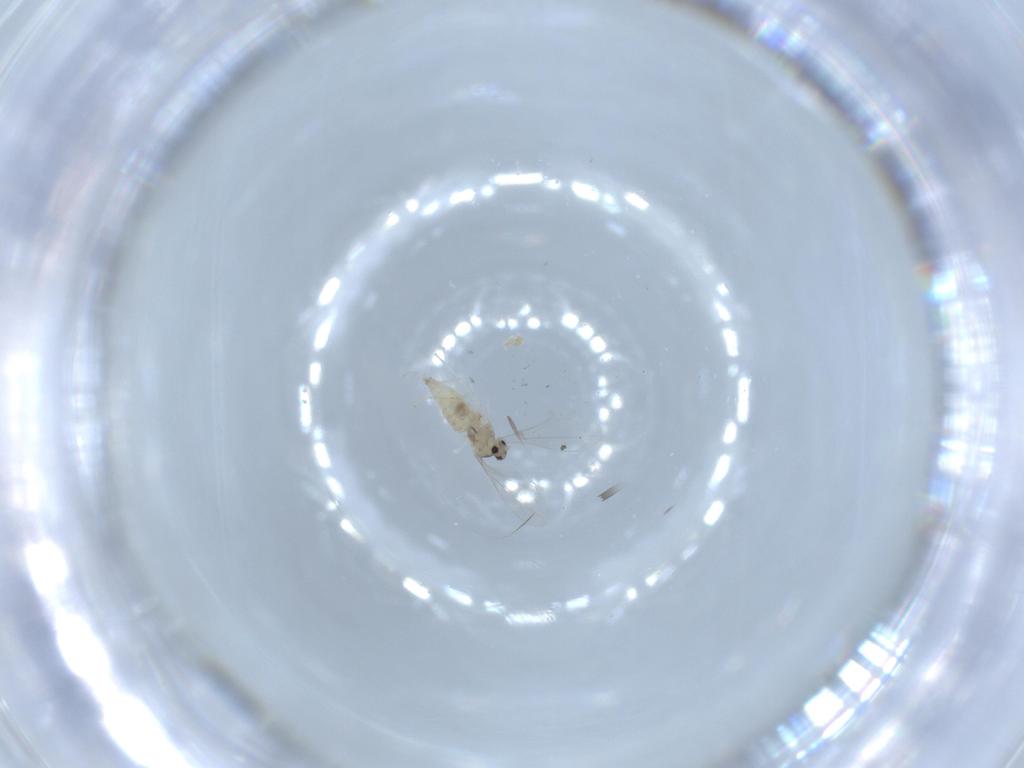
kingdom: Animalia
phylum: Arthropoda
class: Insecta
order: Diptera
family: Cecidomyiidae
